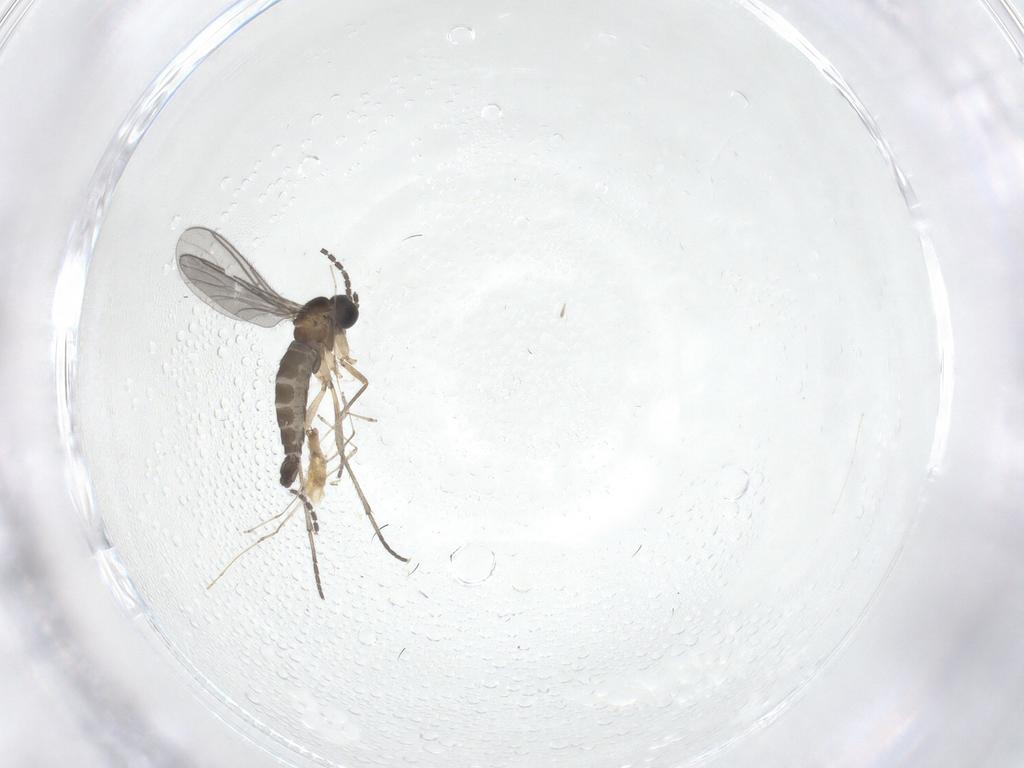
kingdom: Animalia
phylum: Arthropoda
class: Insecta
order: Diptera
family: Sciaridae
